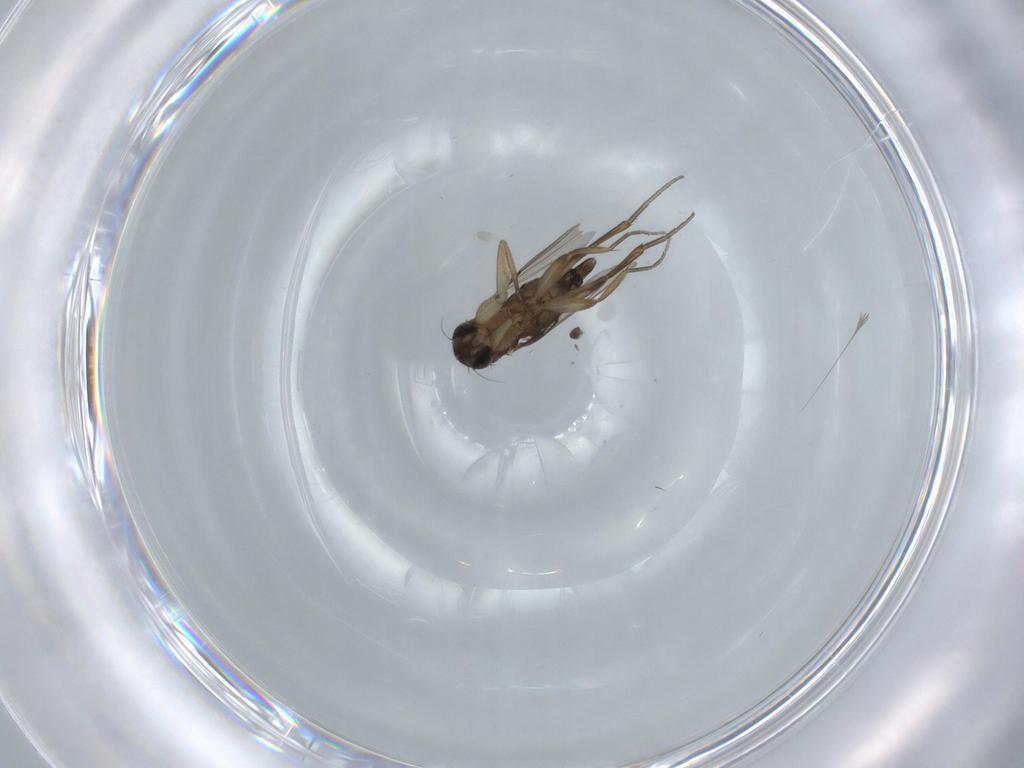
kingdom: Animalia
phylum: Arthropoda
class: Insecta
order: Diptera
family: Phoridae
